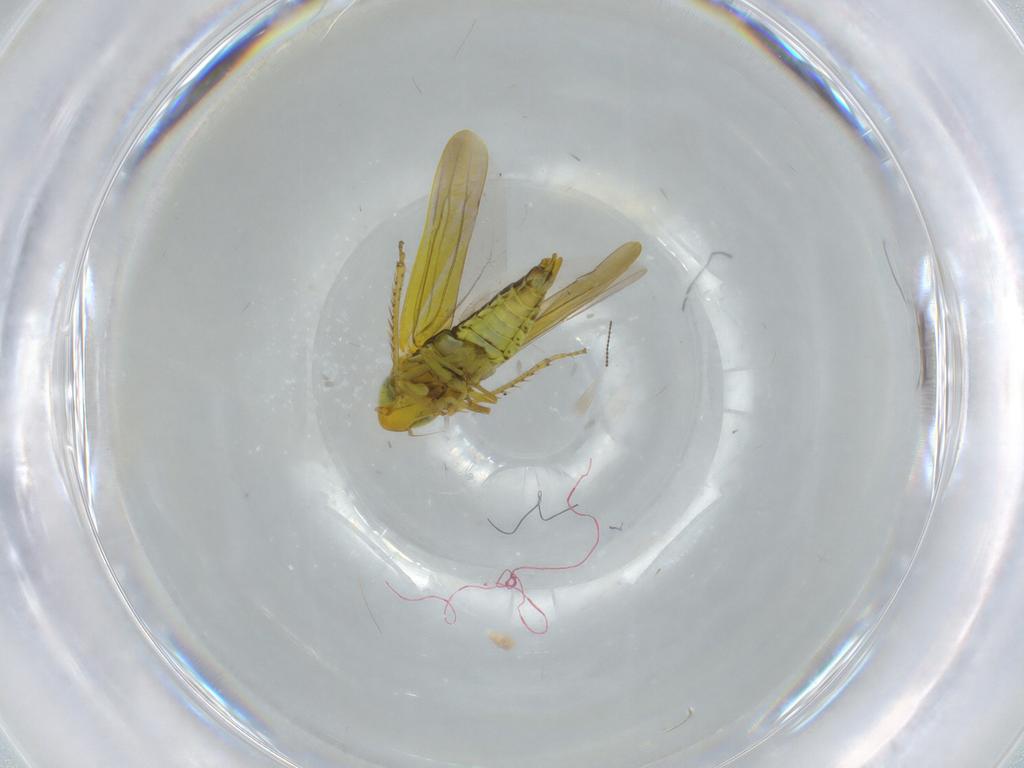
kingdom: Animalia
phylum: Arthropoda
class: Insecta
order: Hemiptera
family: Cicadellidae
